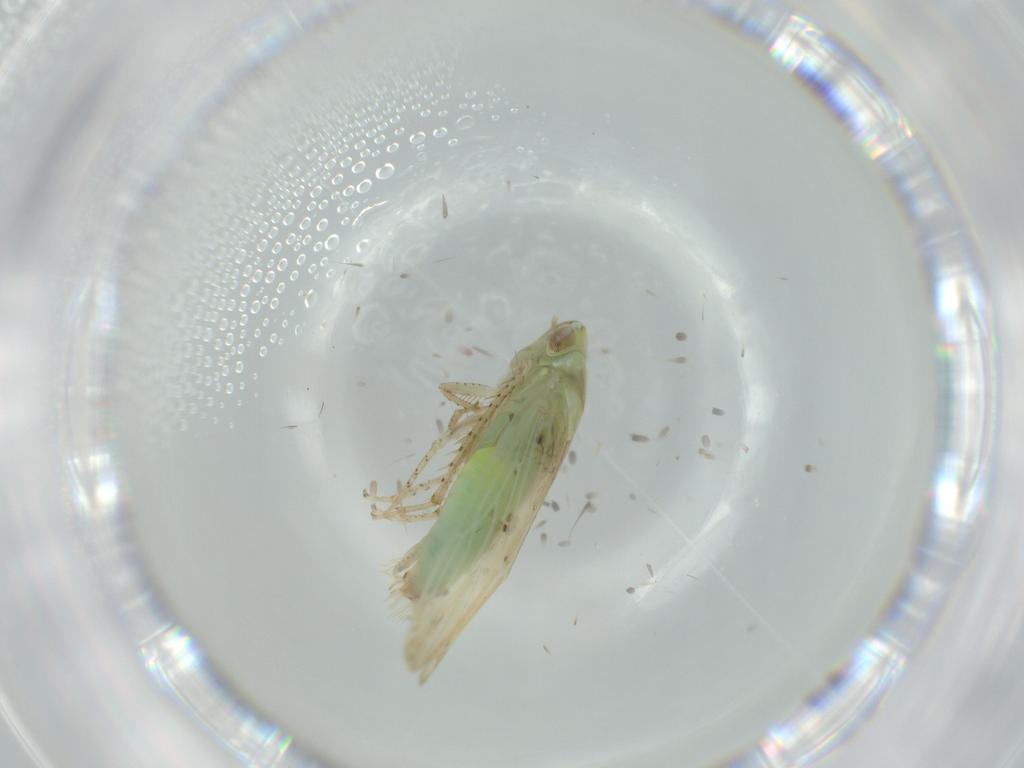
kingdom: Animalia
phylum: Arthropoda
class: Insecta
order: Hemiptera
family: Cicadellidae
